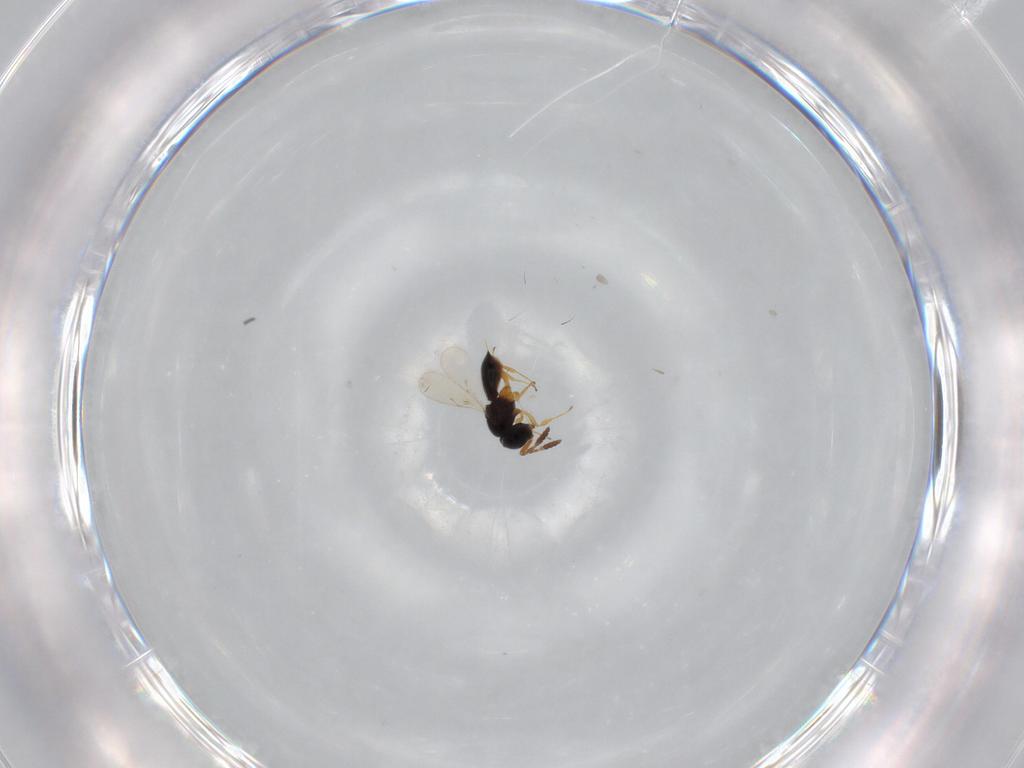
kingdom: Animalia
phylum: Arthropoda
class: Insecta
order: Hymenoptera
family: Scelionidae
